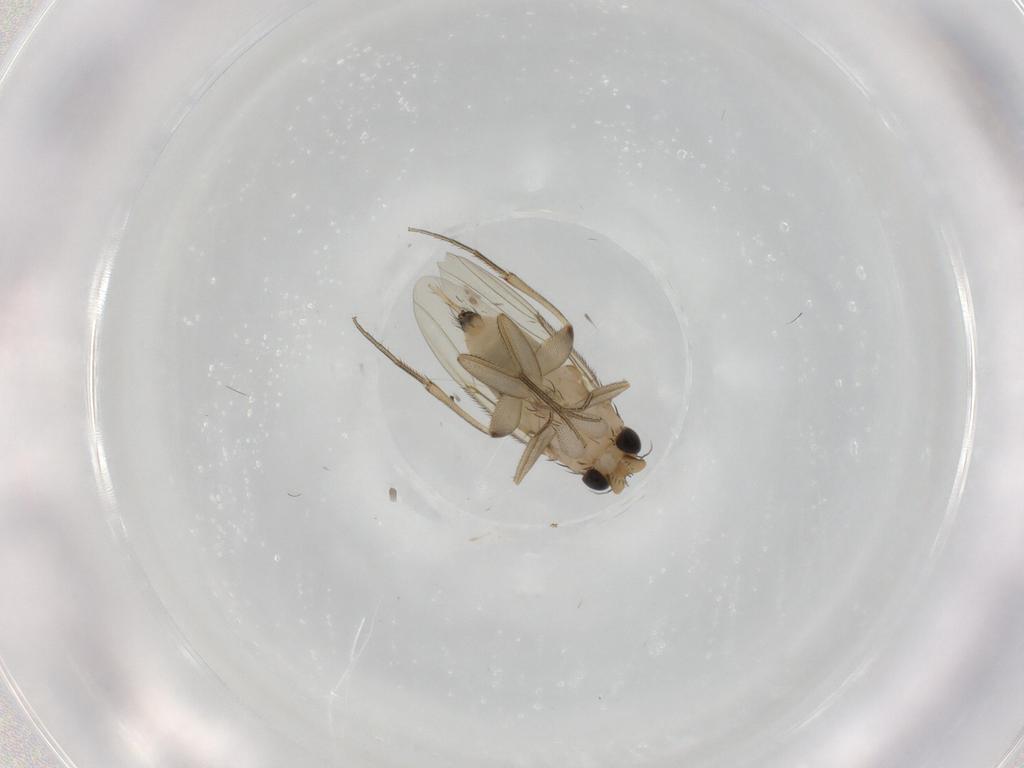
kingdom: Animalia
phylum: Arthropoda
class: Insecta
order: Diptera
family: Phoridae
